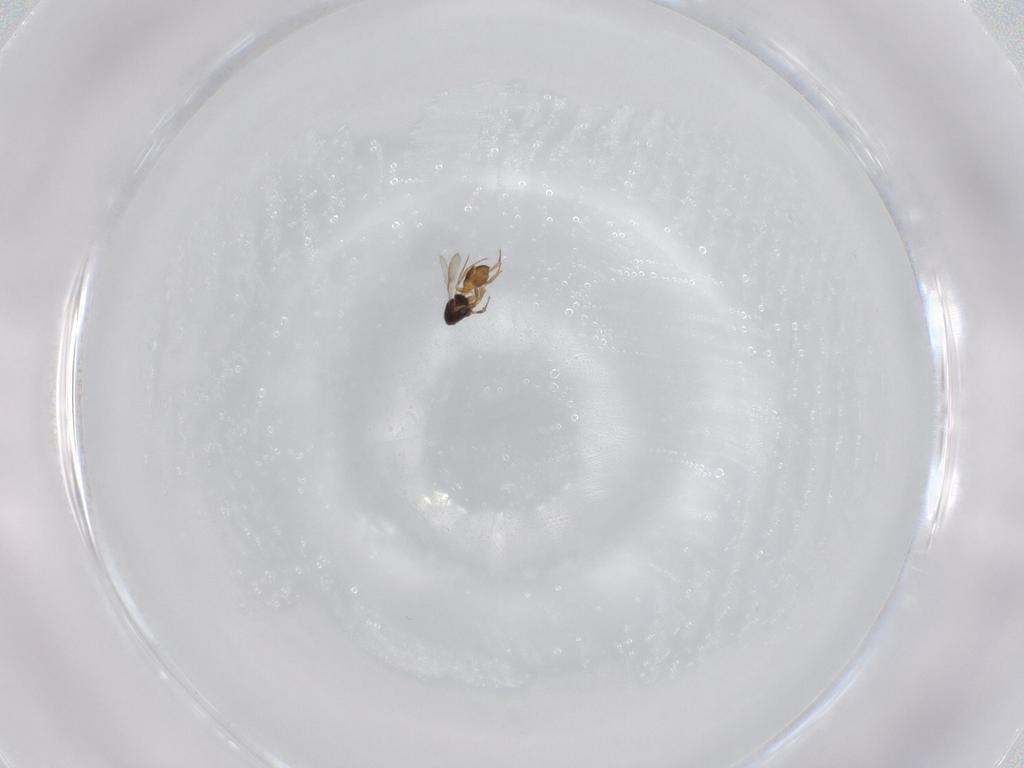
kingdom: Animalia
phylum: Arthropoda
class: Insecta
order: Hymenoptera
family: Scelionidae
